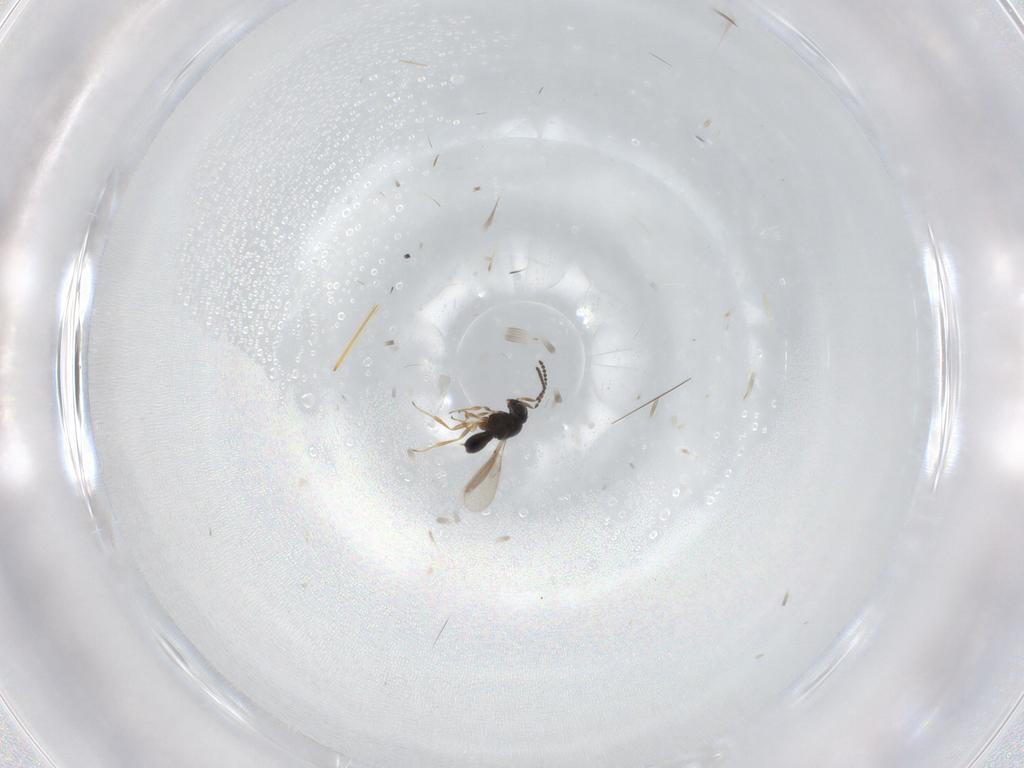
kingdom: Animalia
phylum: Arthropoda
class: Insecta
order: Hymenoptera
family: Scelionidae
